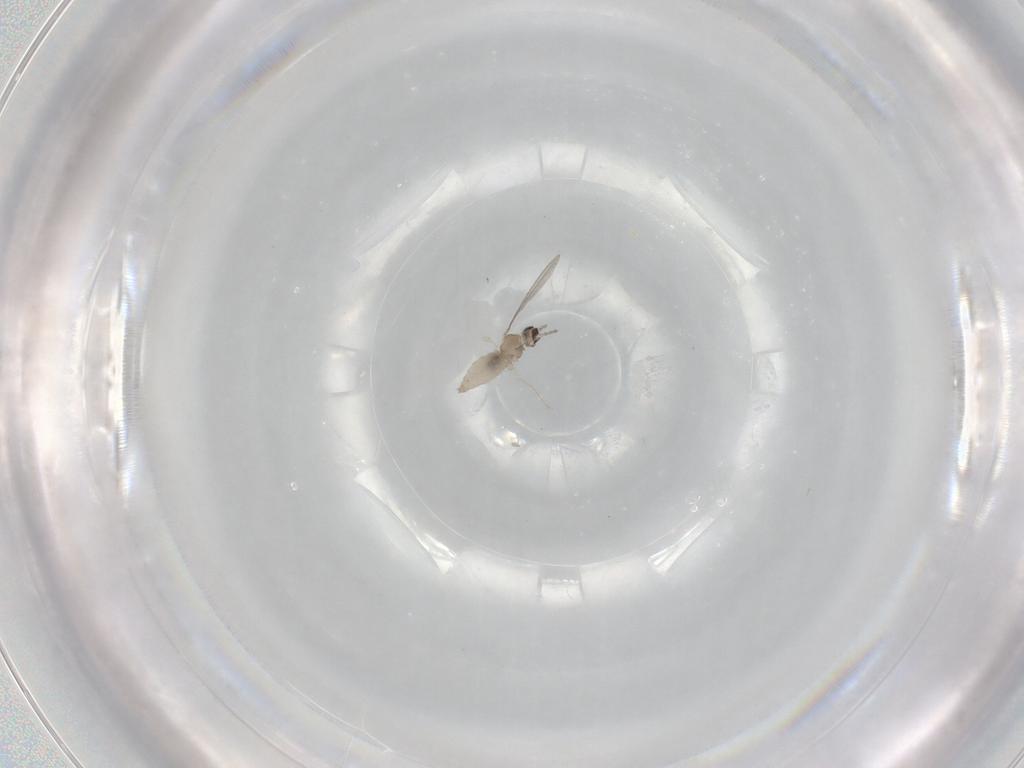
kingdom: Animalia
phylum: Arthropoda
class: Insecta
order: Diptera
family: Cecidomyiidae
